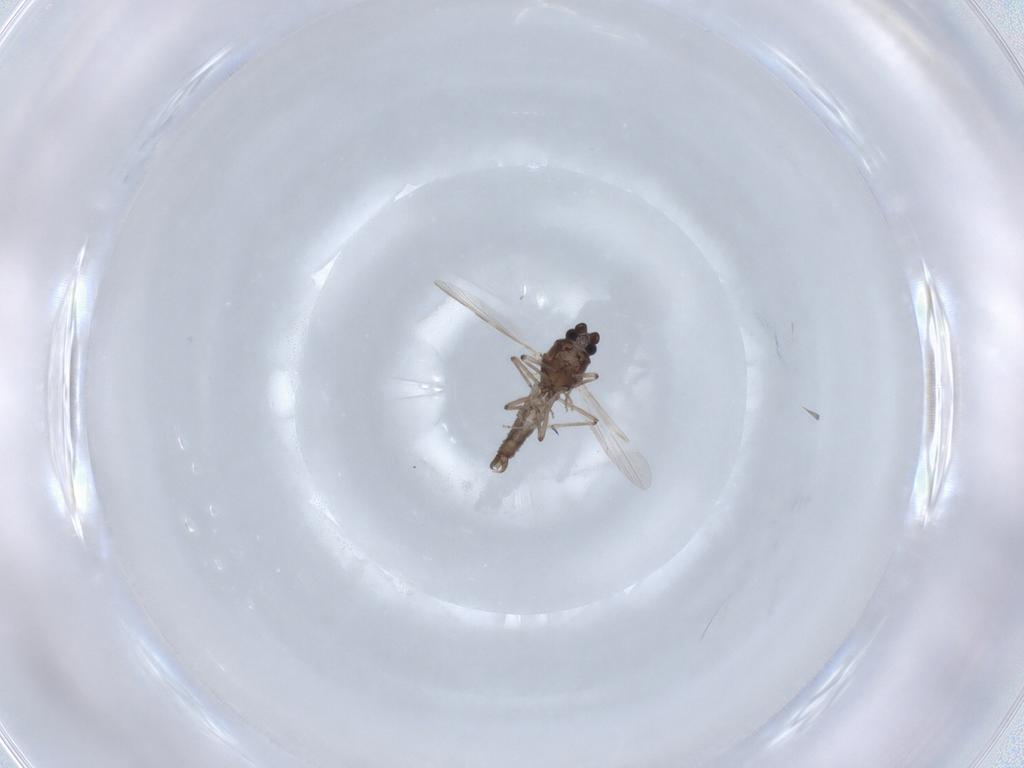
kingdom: Animalia
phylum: Arthropoda
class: Insecta
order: Diptera
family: Ceratopogonidae
